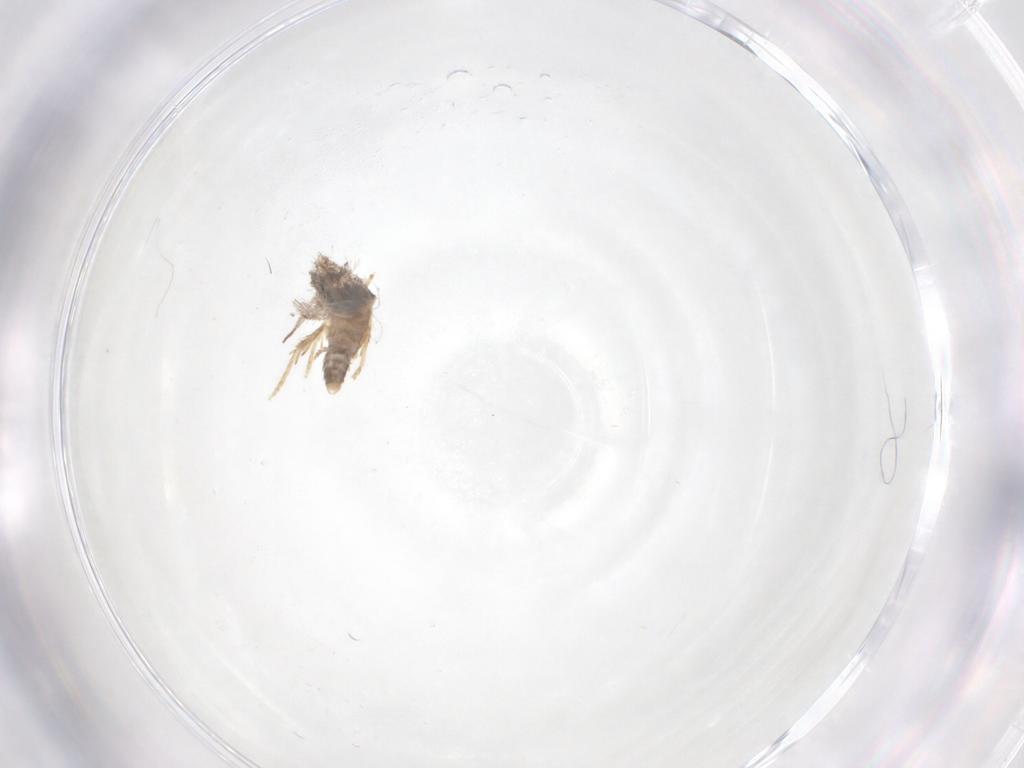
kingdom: Animalia
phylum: Arthropoda
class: Insecta
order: Lepidoptera
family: Nepticulidae
